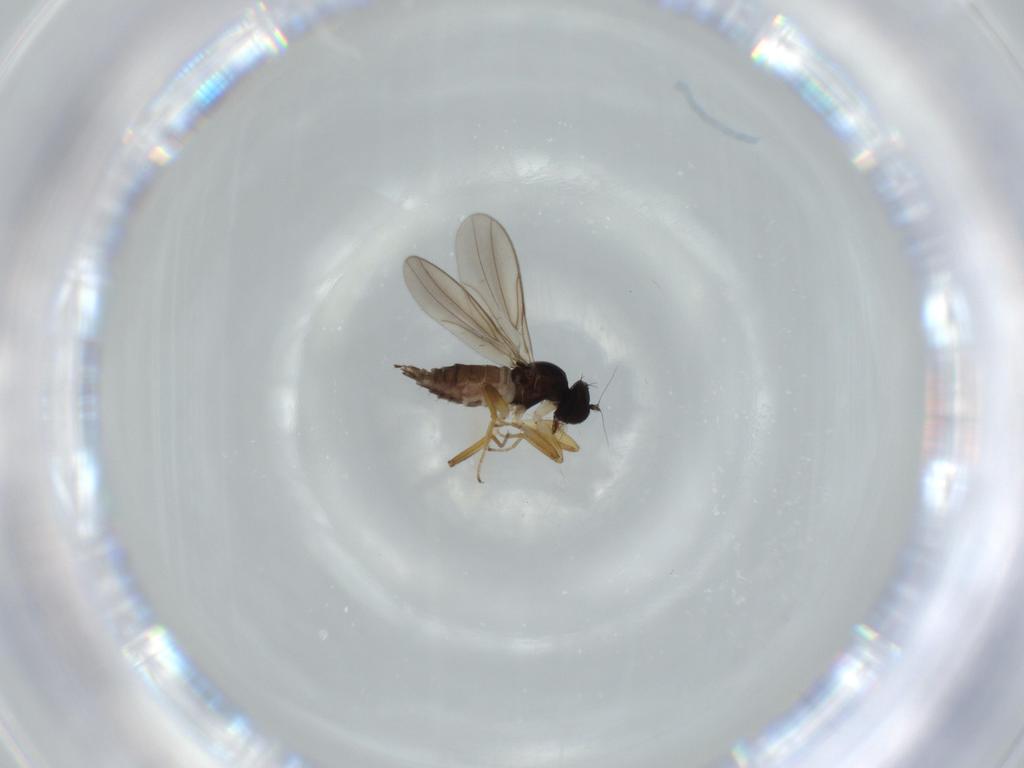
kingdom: Animalia
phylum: Arthropoda
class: Insecta
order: Diptera
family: Hybotidae
